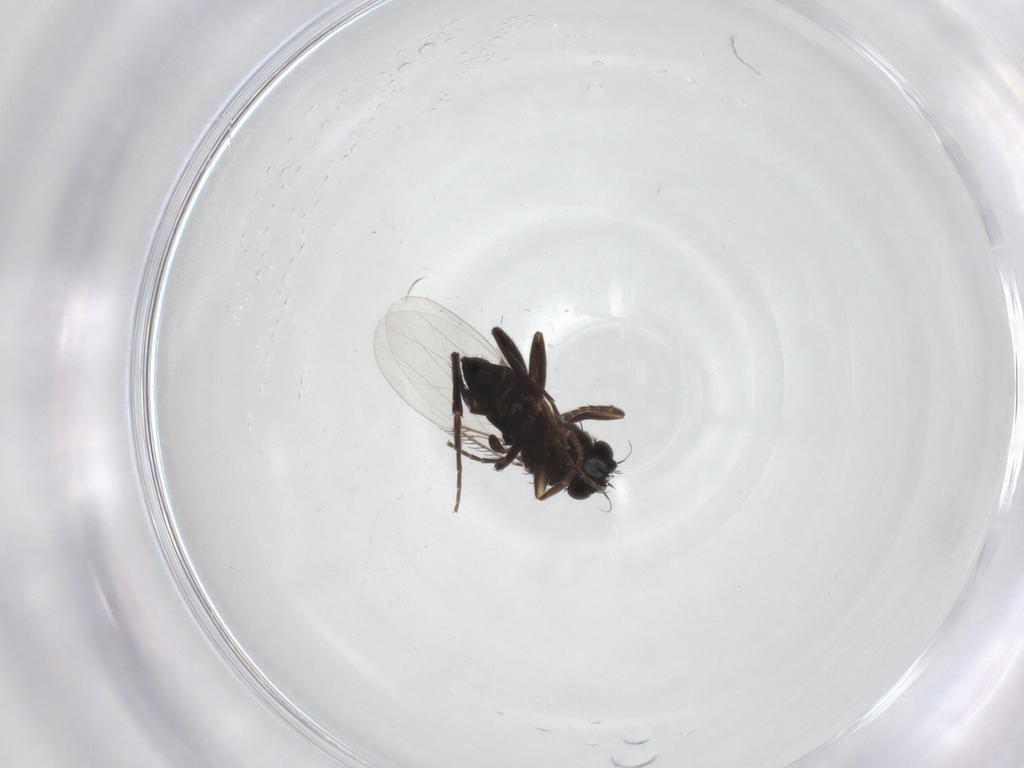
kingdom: Animalia
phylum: Arthropoda
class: Insecta
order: Diptera
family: Phoridae
